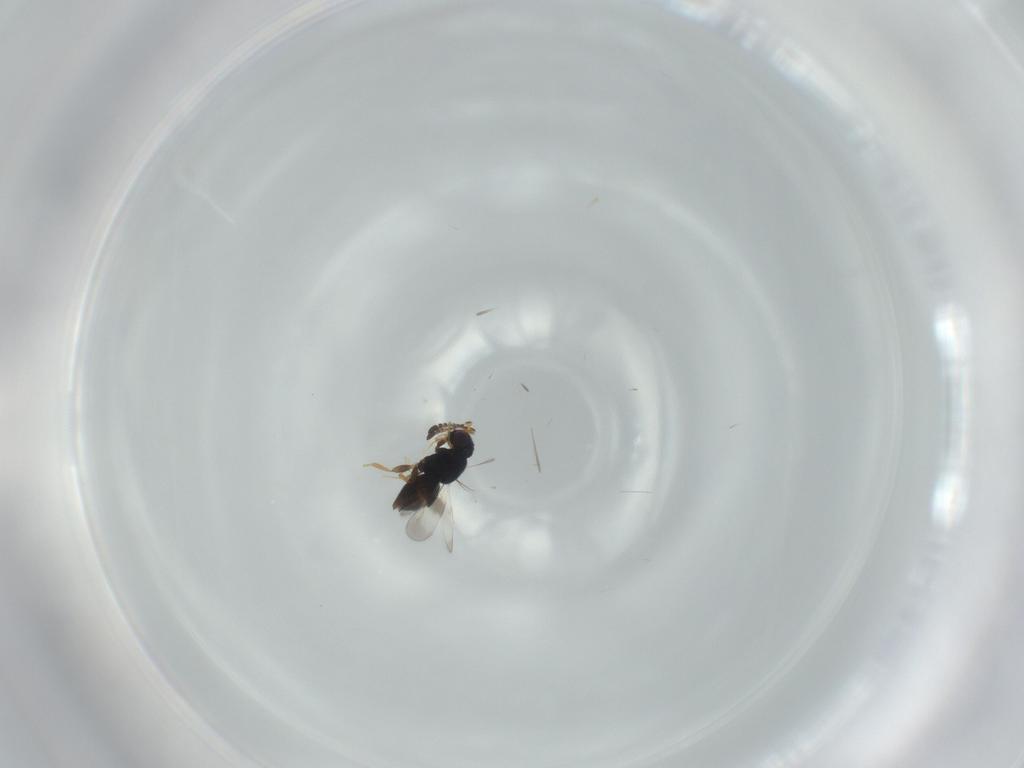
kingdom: Animalia
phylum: Arthropoda
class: Insecta
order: Hymenoptera
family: Ceraphronidae
